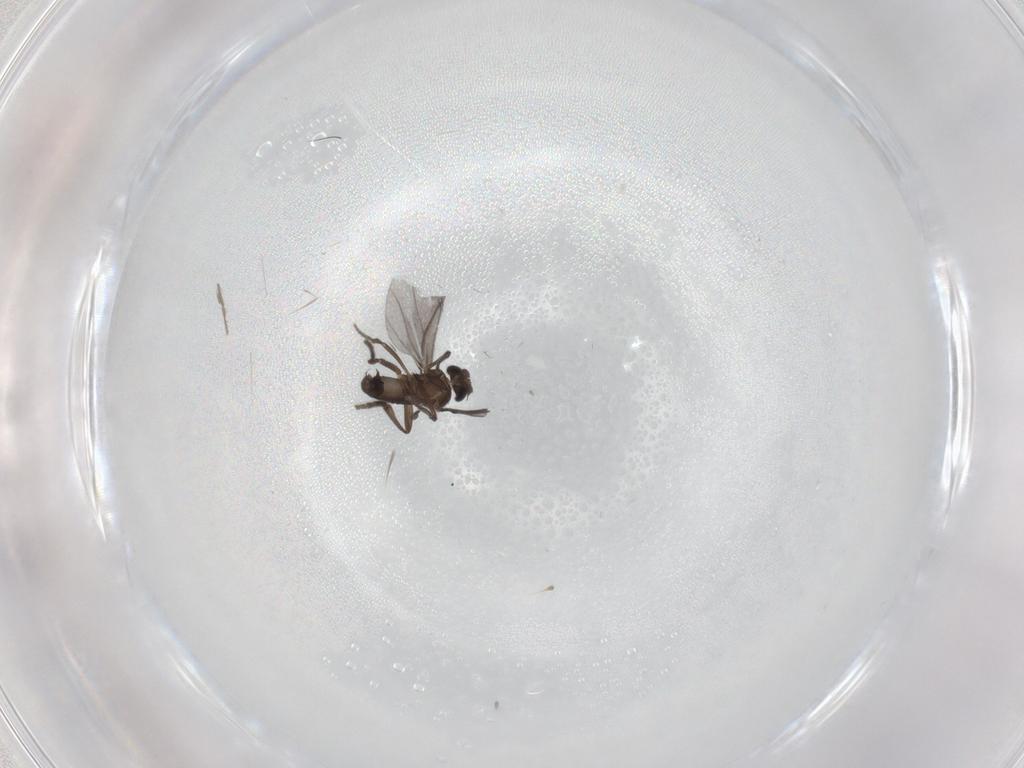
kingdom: Animalia
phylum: Arthropoda
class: Insecta
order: Diptera
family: Phoridae
